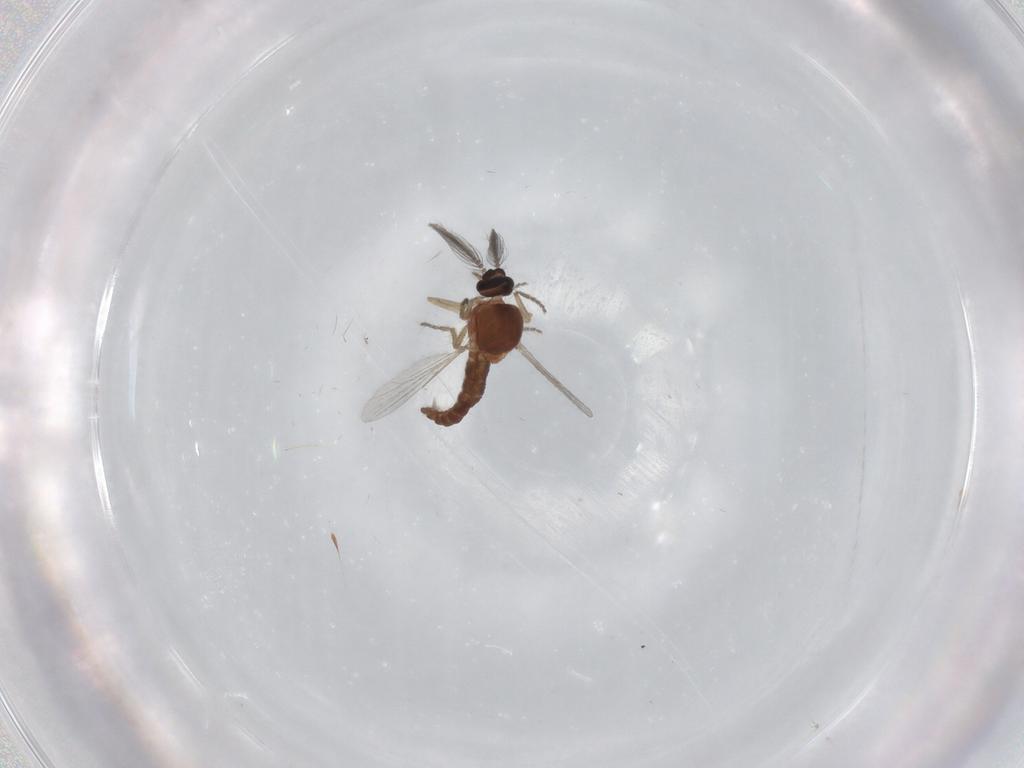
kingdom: Animalia
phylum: Arthropoda
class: Insecta
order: Diptera
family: Ceratopogonidae
